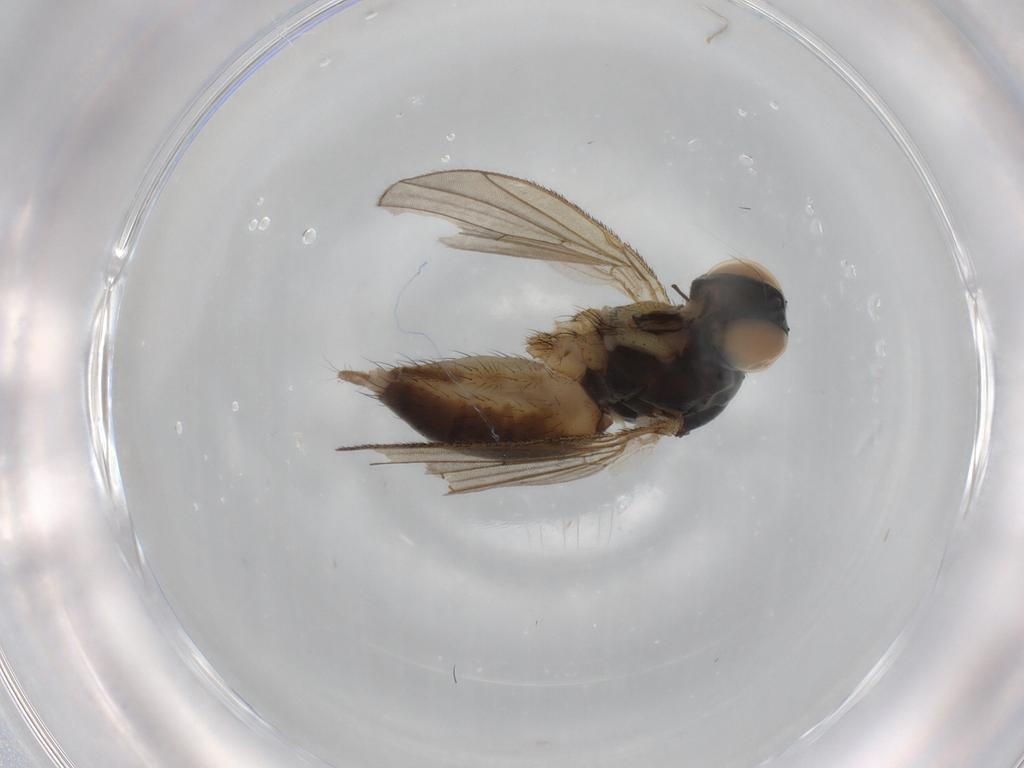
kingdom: Animalia
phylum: Arthropoda
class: Insecta
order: Diptera
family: Muscidae
